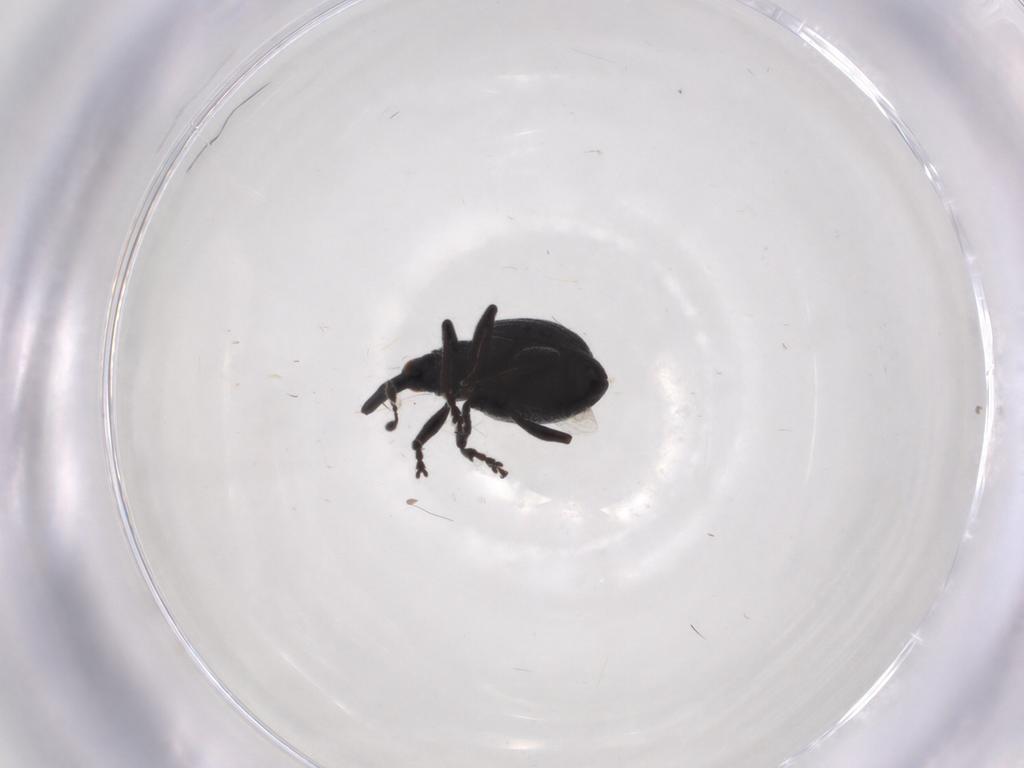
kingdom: Animalia
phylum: Arthropoda
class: Insecta
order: Coleoptera
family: Brentidae
